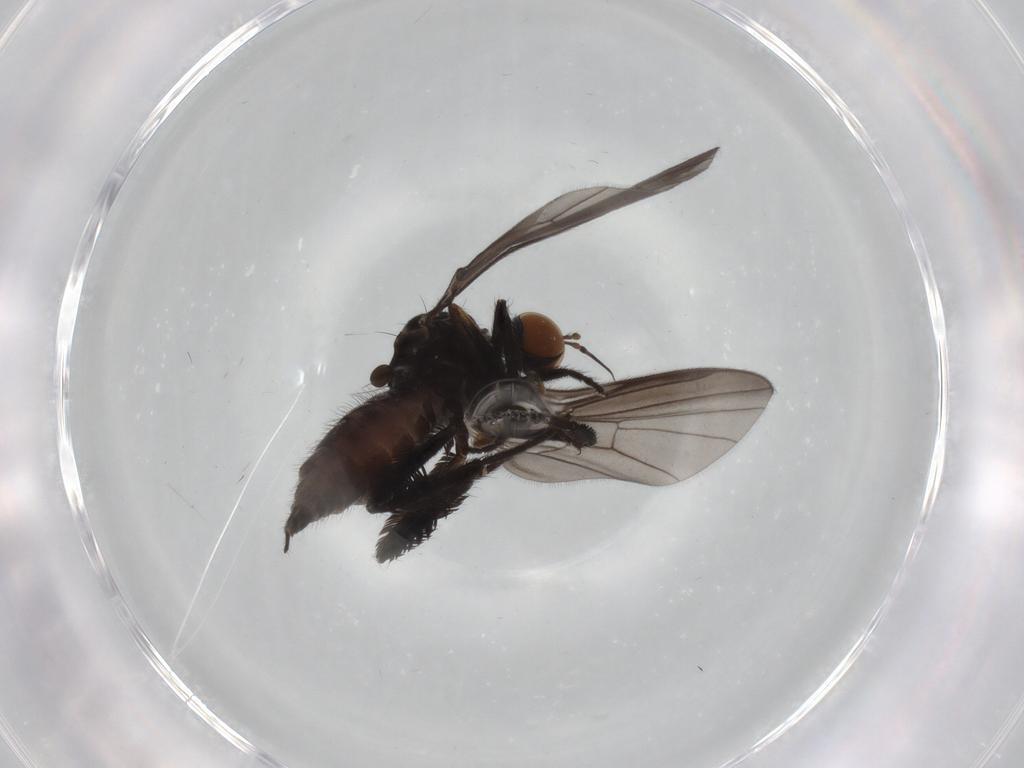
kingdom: Animalia
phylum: Arthropoda
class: Insecta
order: Diptera
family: Empididae
